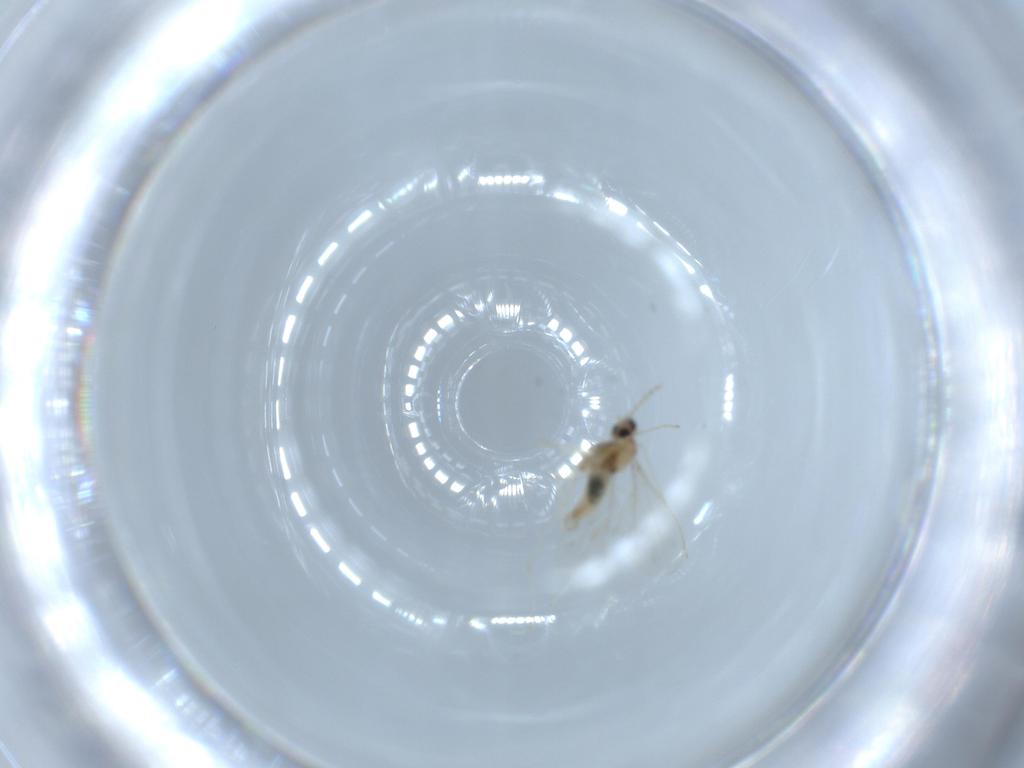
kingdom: Animalia
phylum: Arthropoda
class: Insecta
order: Diptera
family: Cecidomyiidae
